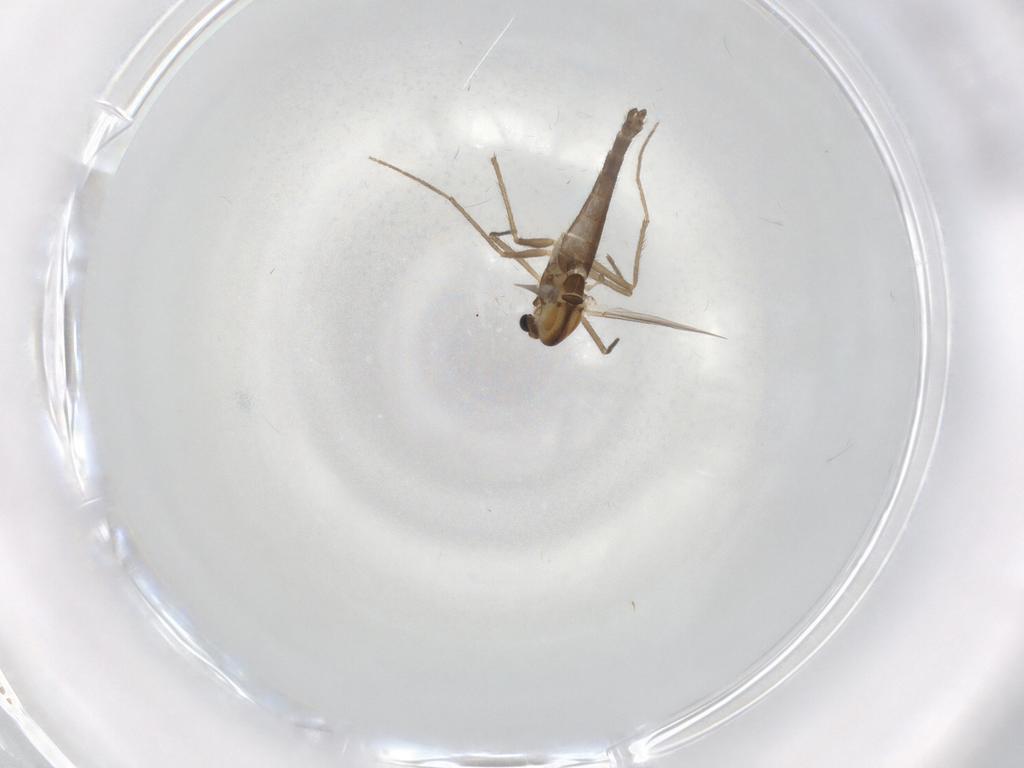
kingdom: Animalia
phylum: Arthropoda
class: Insecta
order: Diptera
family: Chironomidae
